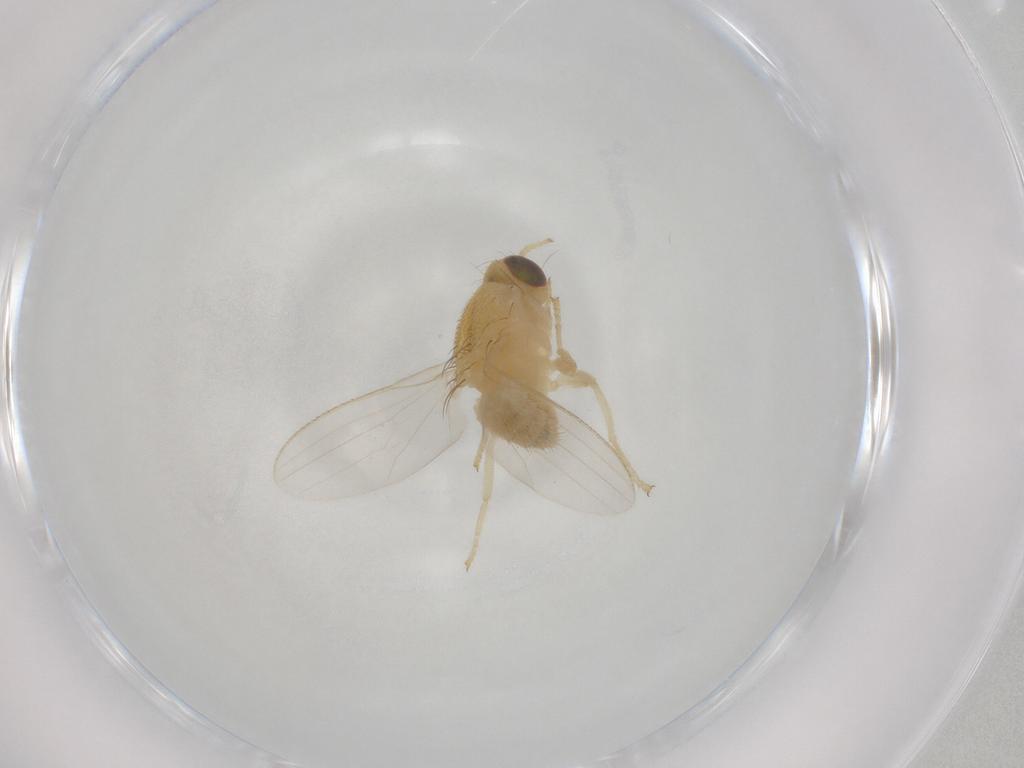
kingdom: Animalia
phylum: Arthropoda
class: Insecta
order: Diptera
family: Chyromyidae
